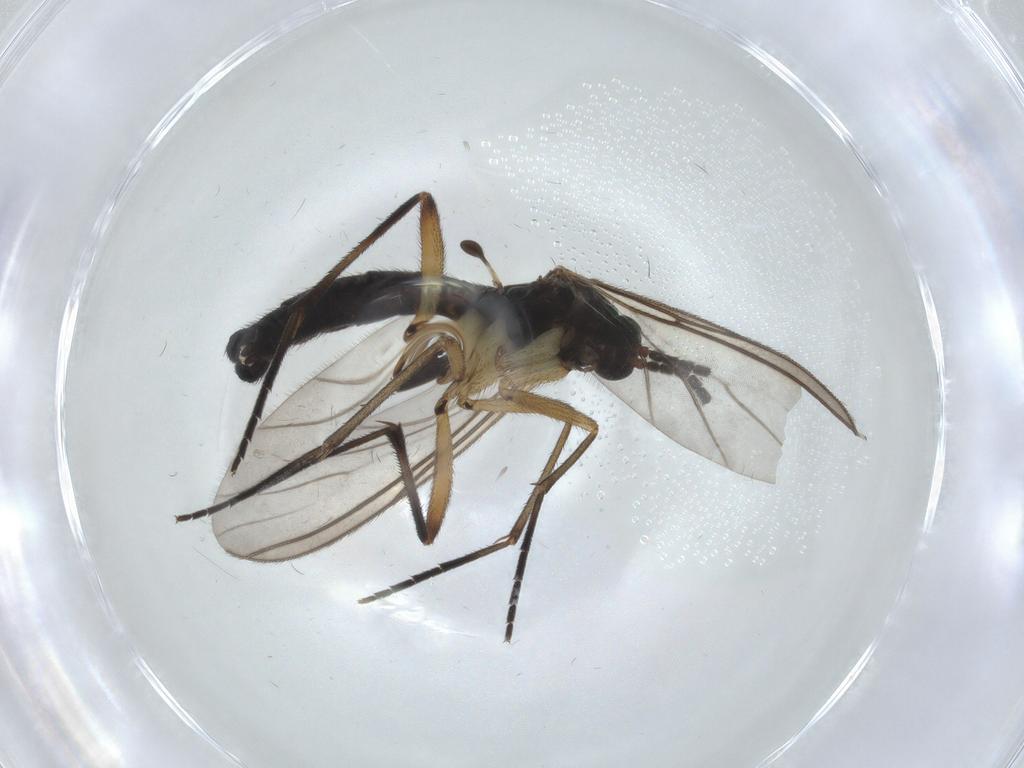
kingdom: Animalia
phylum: Arthropoda
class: Insecta
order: Diptera
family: Sciaridae
